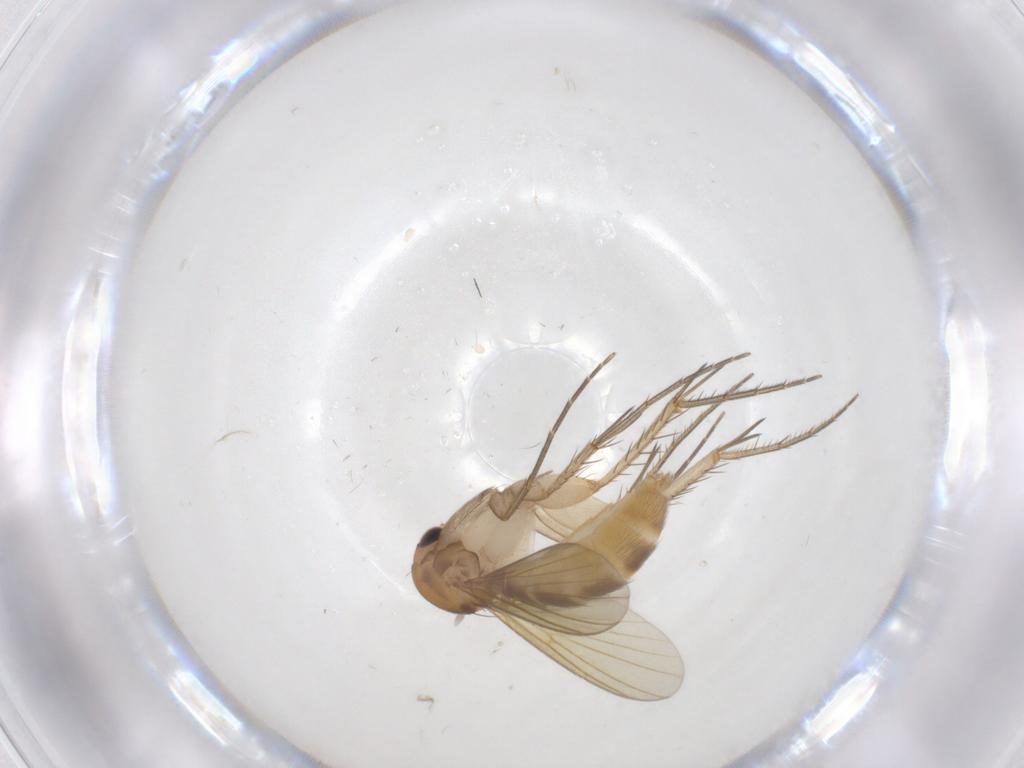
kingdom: Animalia
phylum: Arthropoda
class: Insecta
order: Diptera
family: Mycetophilidae
